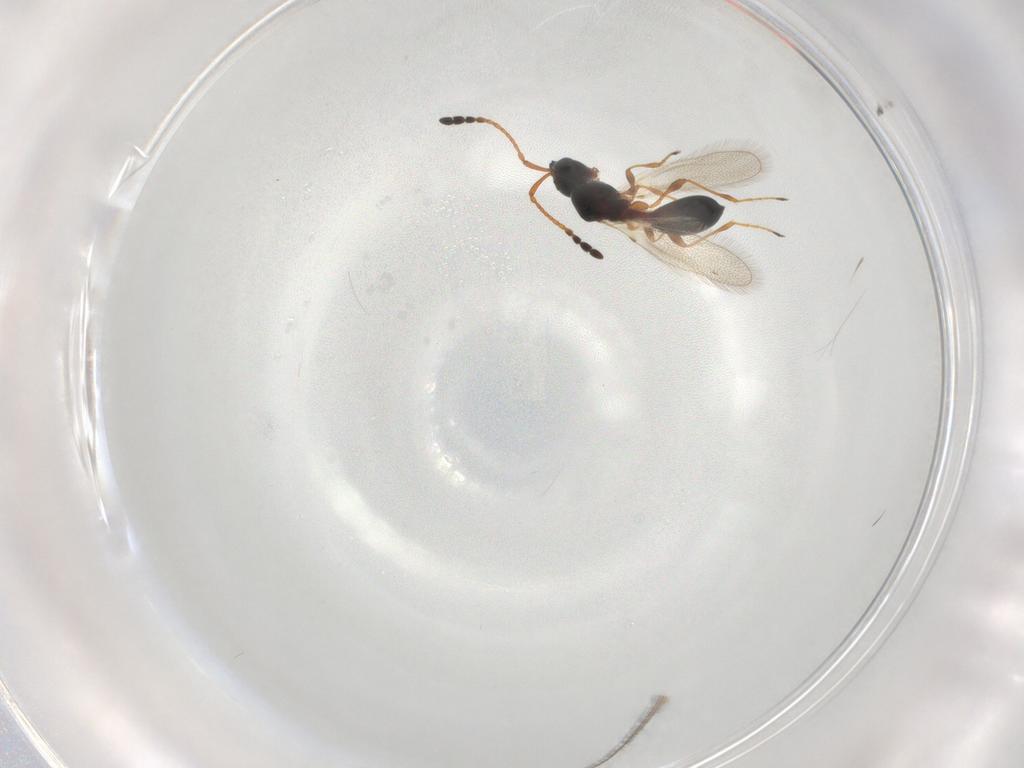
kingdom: Animalia
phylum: Arthropoda
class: Insecta
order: Hymenoptera
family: Diapriidae
